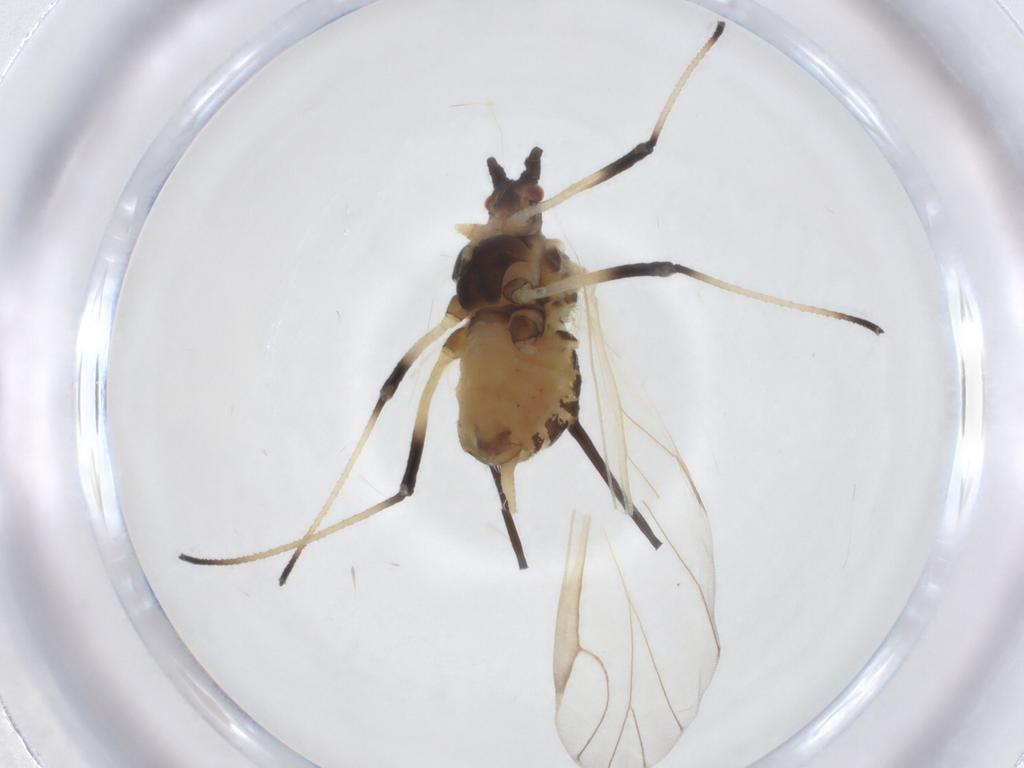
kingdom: Animalia
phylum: Arthropoda
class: Insecta
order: Hemiptera
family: Aphididae
